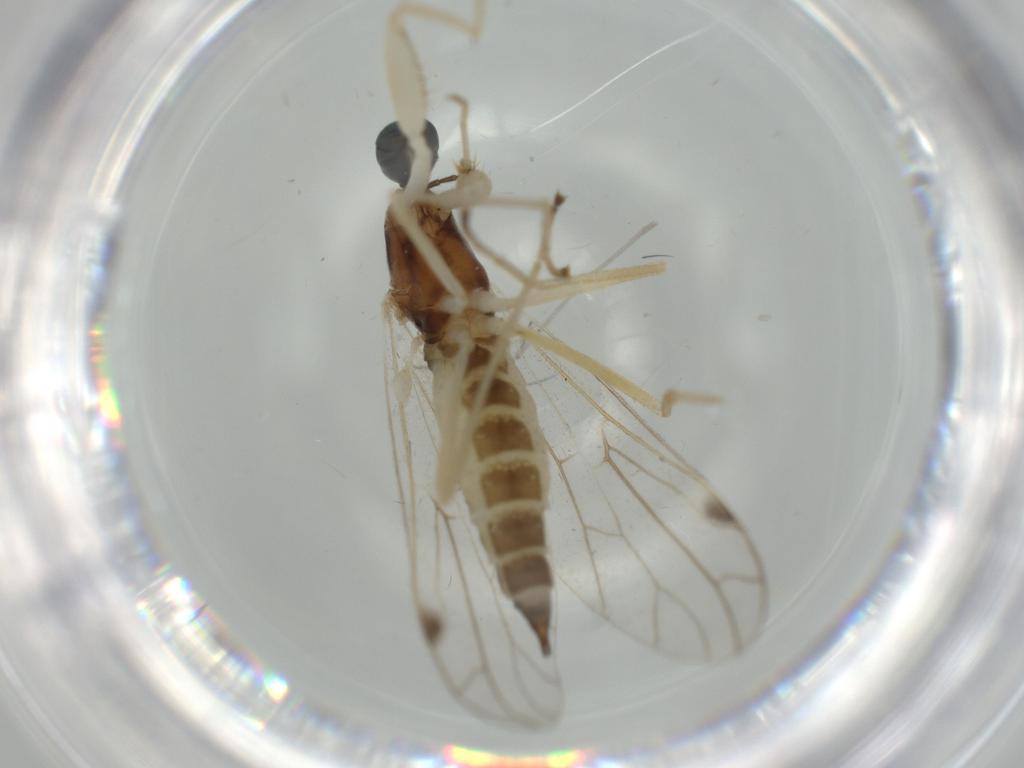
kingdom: Animalia
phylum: Arthropoda
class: Insecta
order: Diptera
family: Sciaridae
